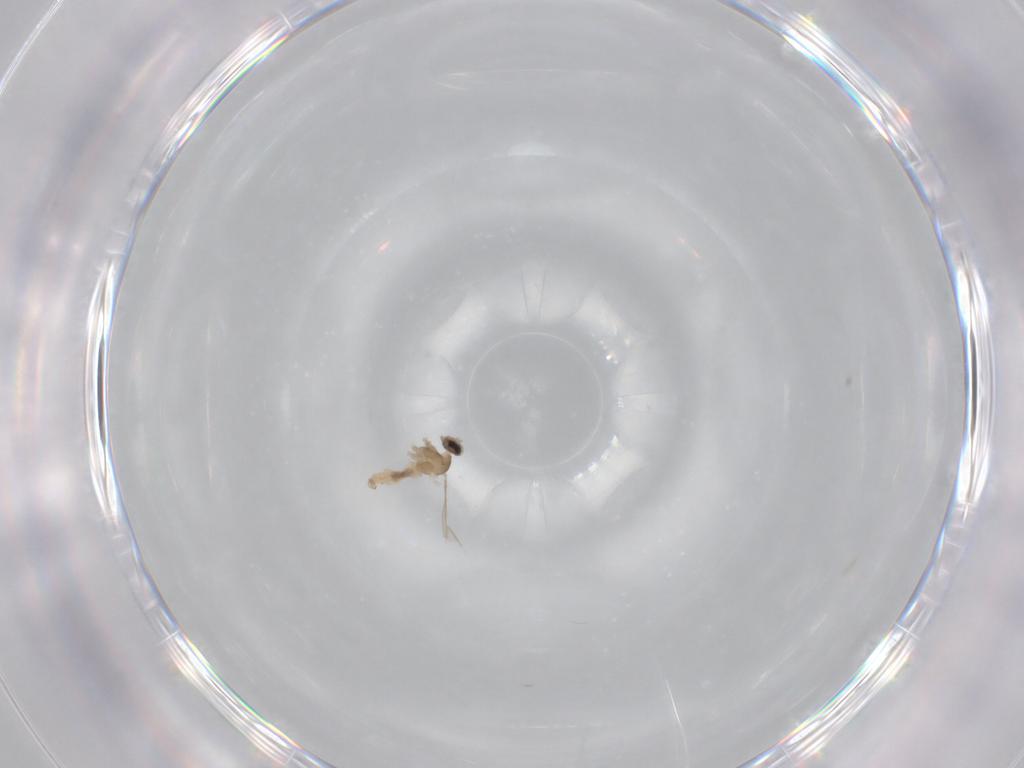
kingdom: Animalia
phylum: Arthropoda
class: Insecta
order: Diptera
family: Cecidomyiidae
